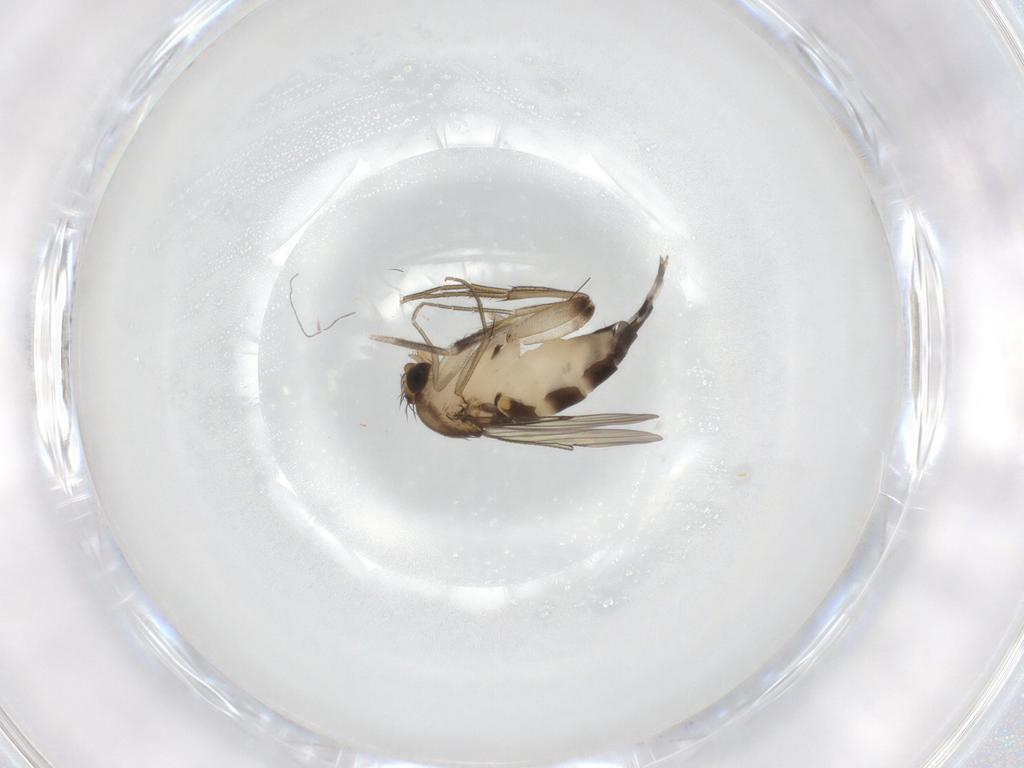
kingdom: Animalia
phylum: Arthropoda
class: Insecta
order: Diptera
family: Phoridae
